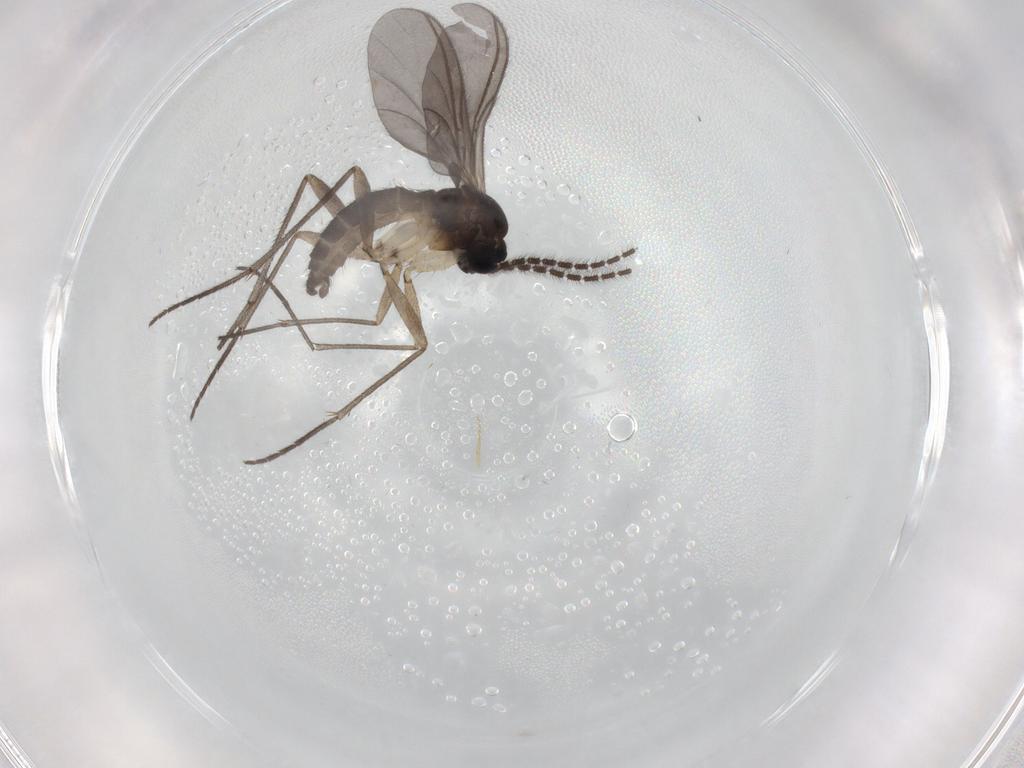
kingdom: Animalia
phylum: Arthropoda
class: Insecta
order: Diptera
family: Sciaridae
